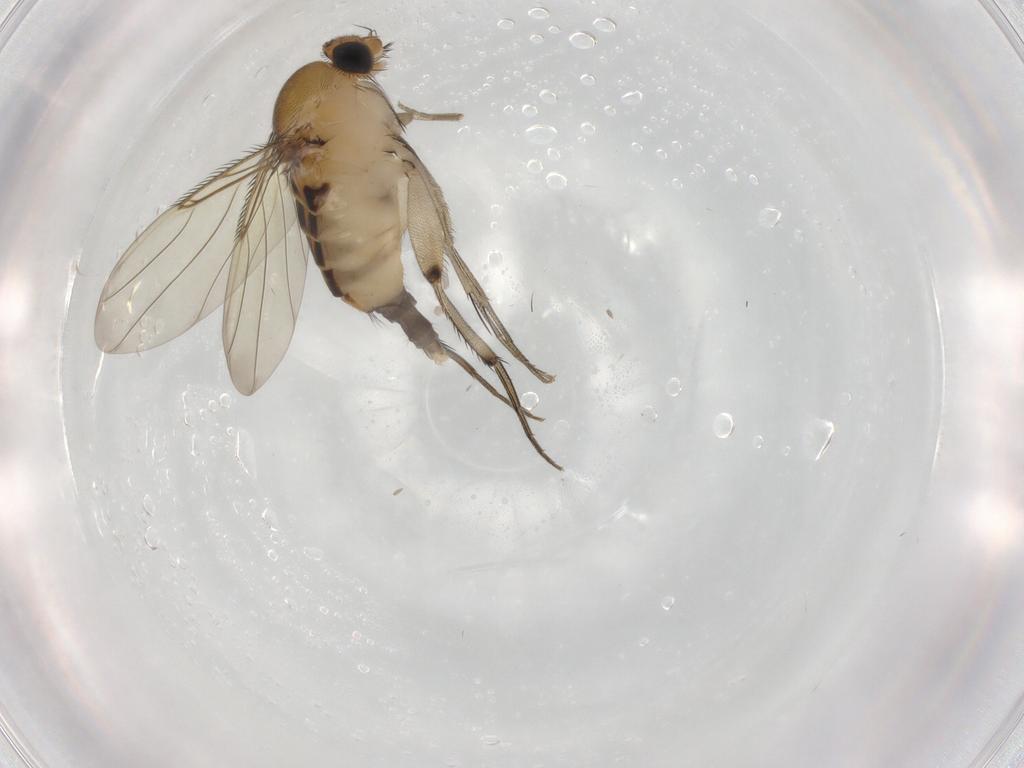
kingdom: Animalia
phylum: Arthropoda
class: Insecta
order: Diptera
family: Phoridae
